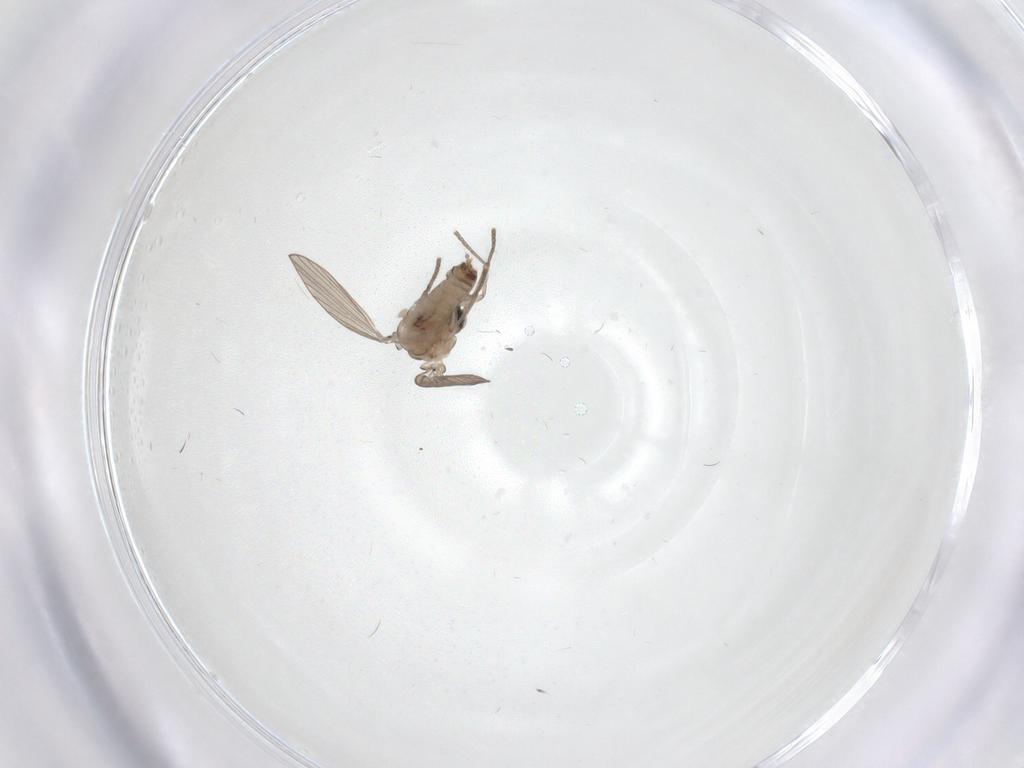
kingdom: Animalia
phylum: Arthropoda
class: Insecta
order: Diptera
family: Psychodidae
